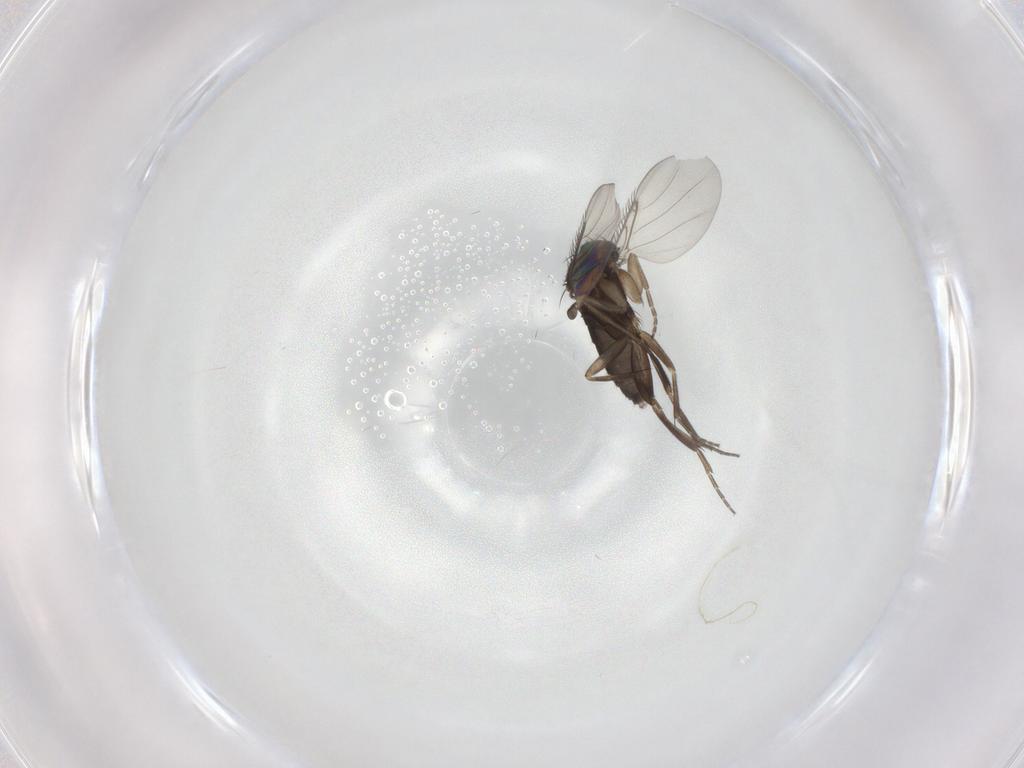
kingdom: Animalia
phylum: Arthropoda
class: Insecta
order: Diptera
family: Phoridae
